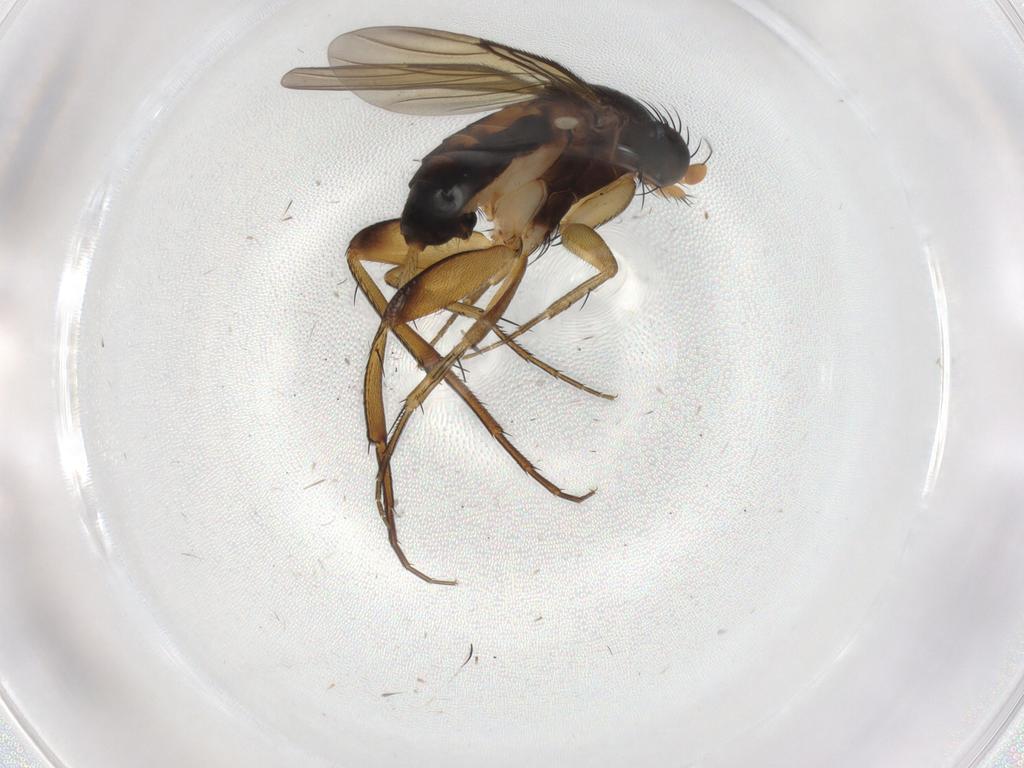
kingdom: Animalia
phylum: Arthropoda
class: Insecta
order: Diptera
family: Phoridae
